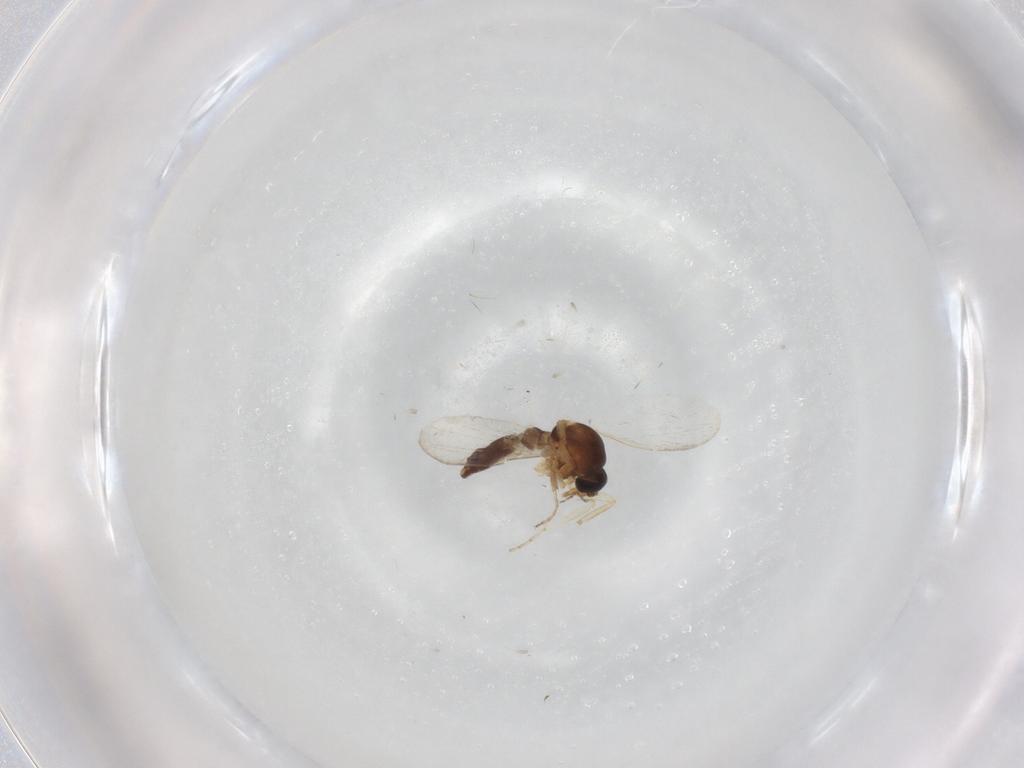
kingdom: Animalia
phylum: Arthropoda
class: Insecta
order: Diptera
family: Ceratopogonidae
